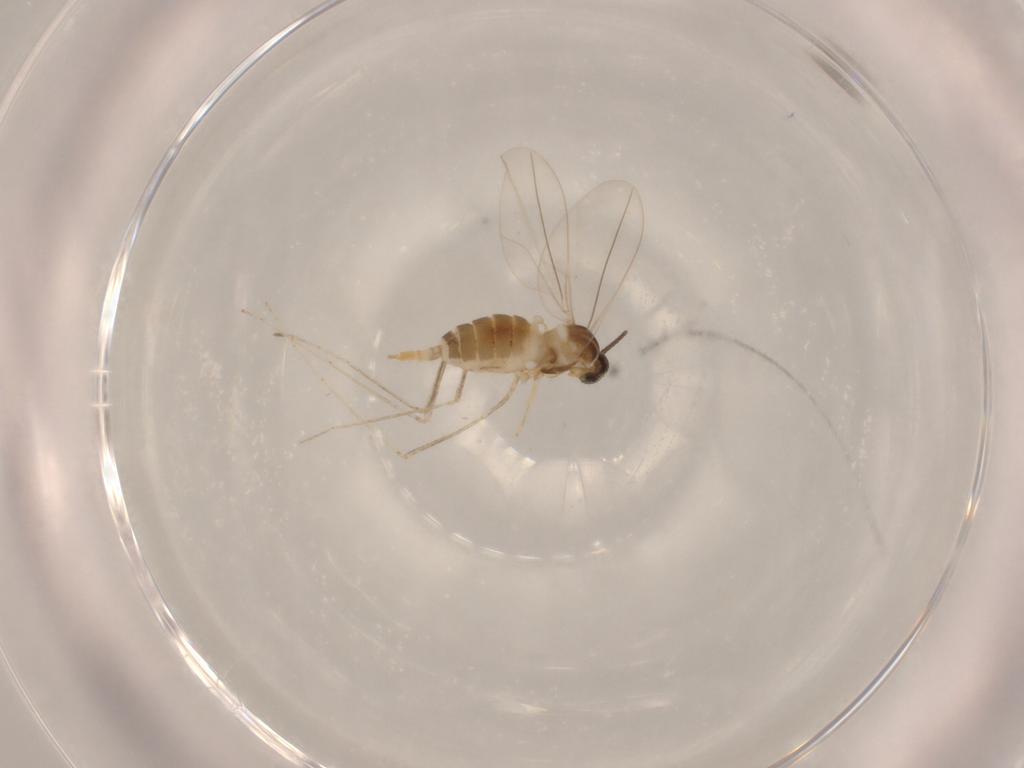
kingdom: Animalia
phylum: Arthropoda
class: Insecta
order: Diptera
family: Cecidomyiidae
